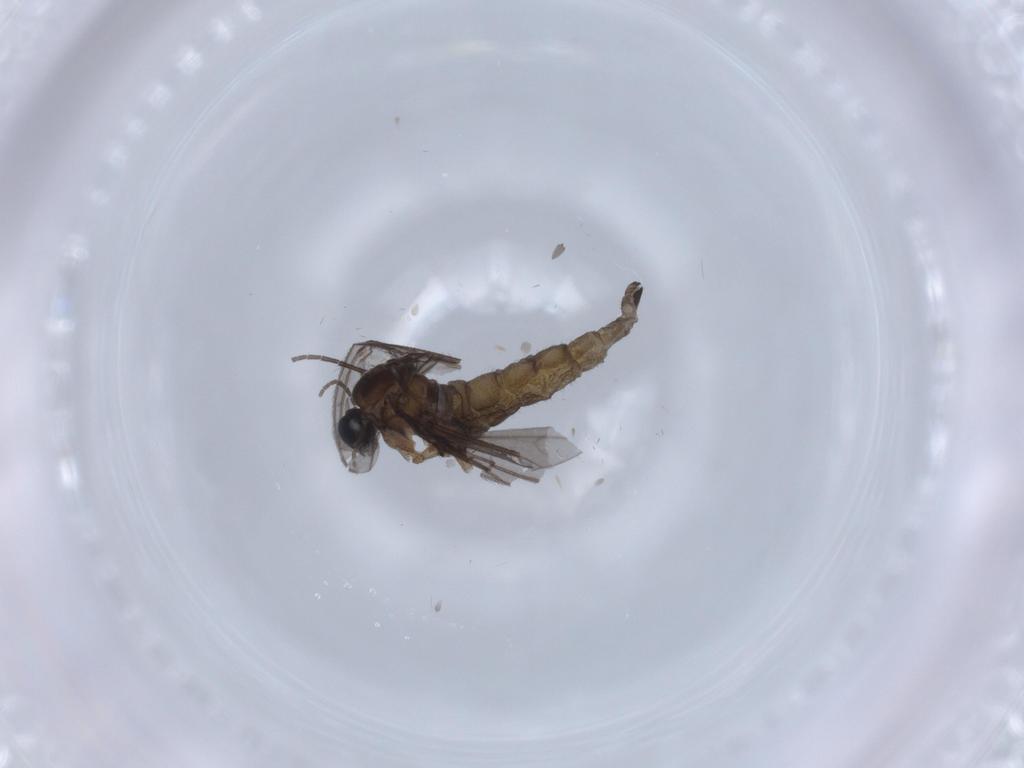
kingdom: Animalia
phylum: Arthropoda
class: Insecta
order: Diptera
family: Sciaridae
